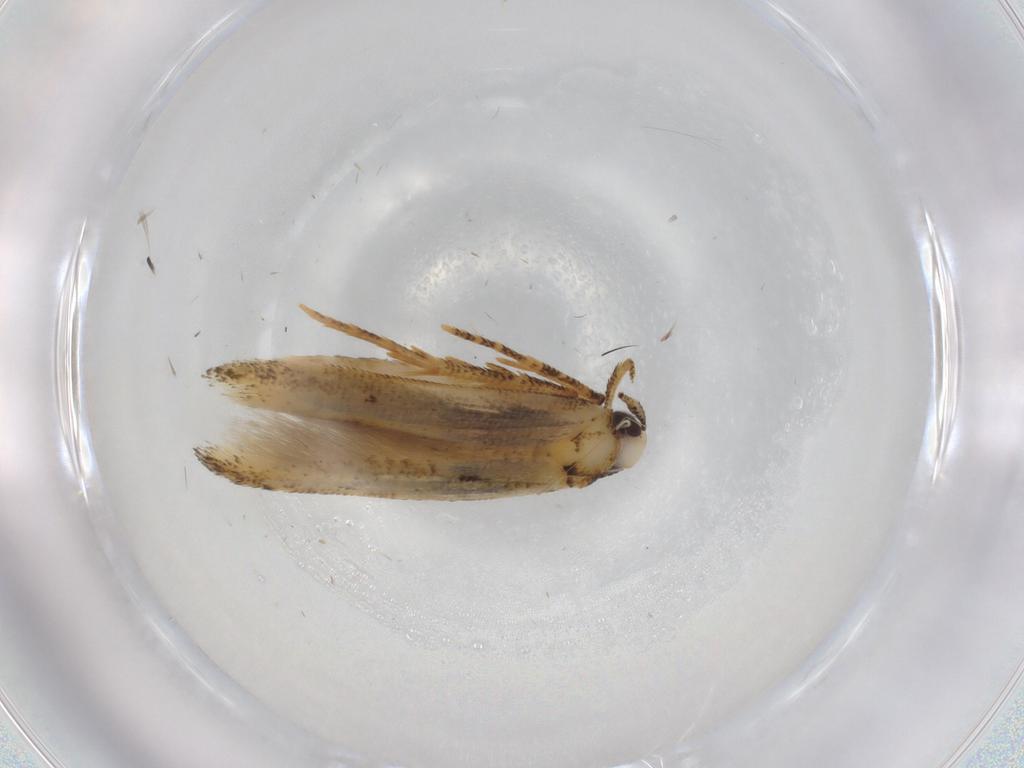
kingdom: Animalia
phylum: Arthropoda
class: Insecta
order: Lepidoptera
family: Cosmopterigidae
